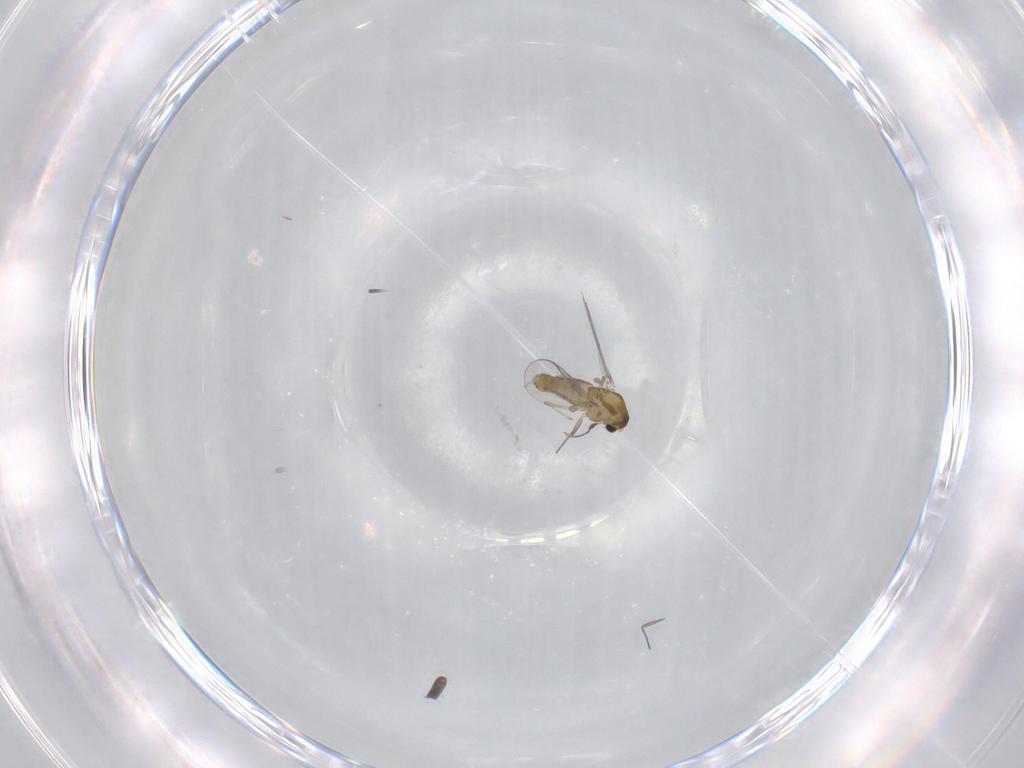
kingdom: Animalia
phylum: Arthropoda
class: Insecta
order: Diptera
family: Chironomidae
